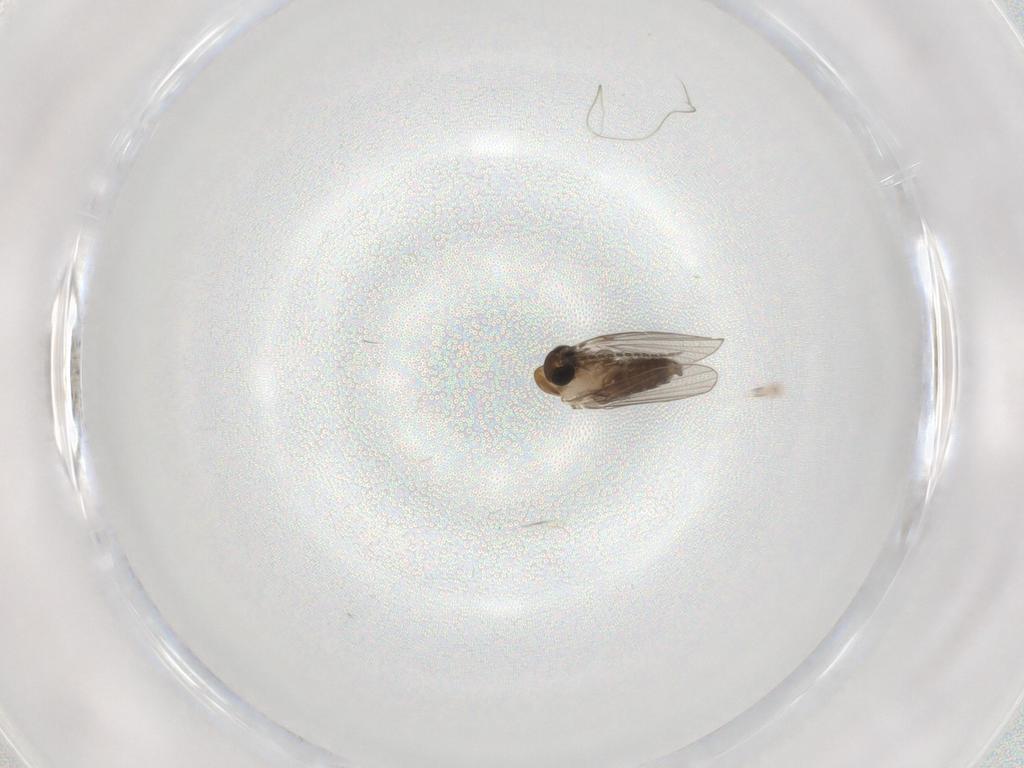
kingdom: Animalia
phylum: Arthropoda
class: Insecta
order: Diptera
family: Psychodidae
